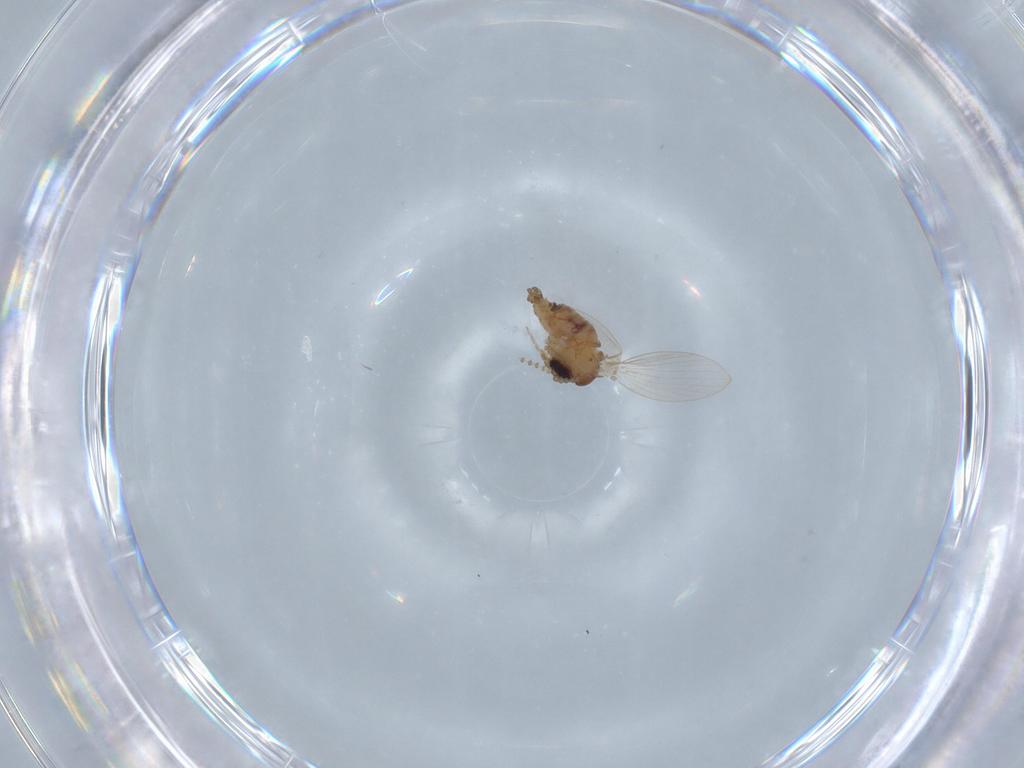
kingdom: Animalia
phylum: Arthropoda
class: Insecta
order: Diptera
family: Psychodidae
